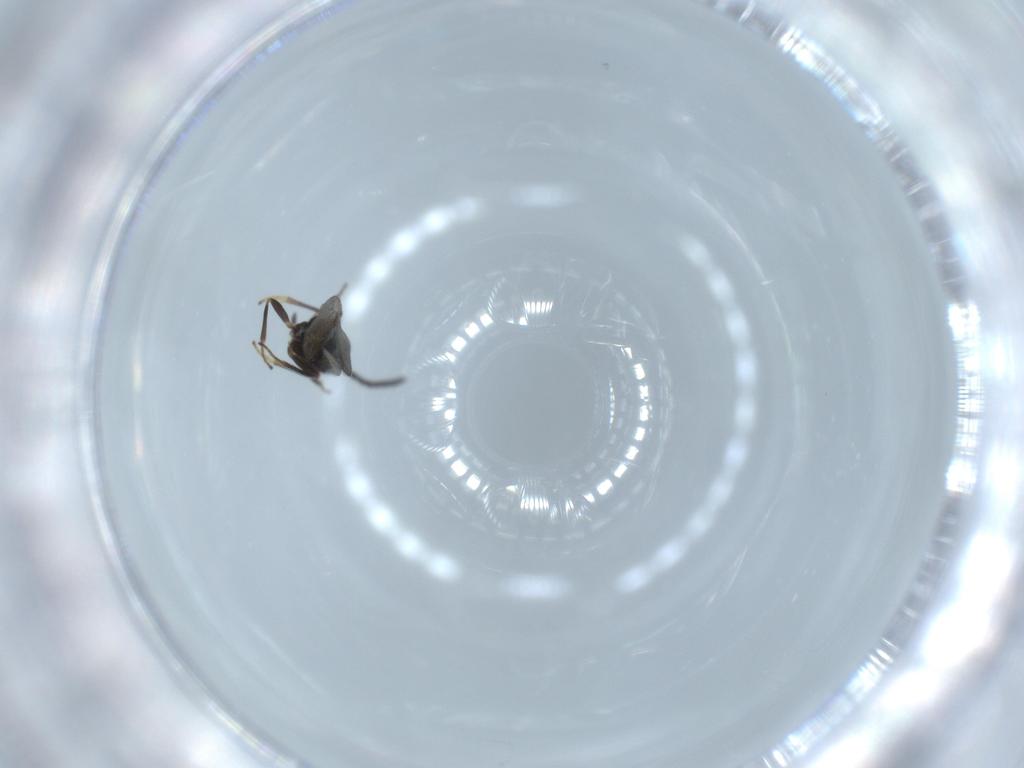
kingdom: Animalia
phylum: Arthropoda
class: Insecta
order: Hymenoptera
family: Encyrtidae
